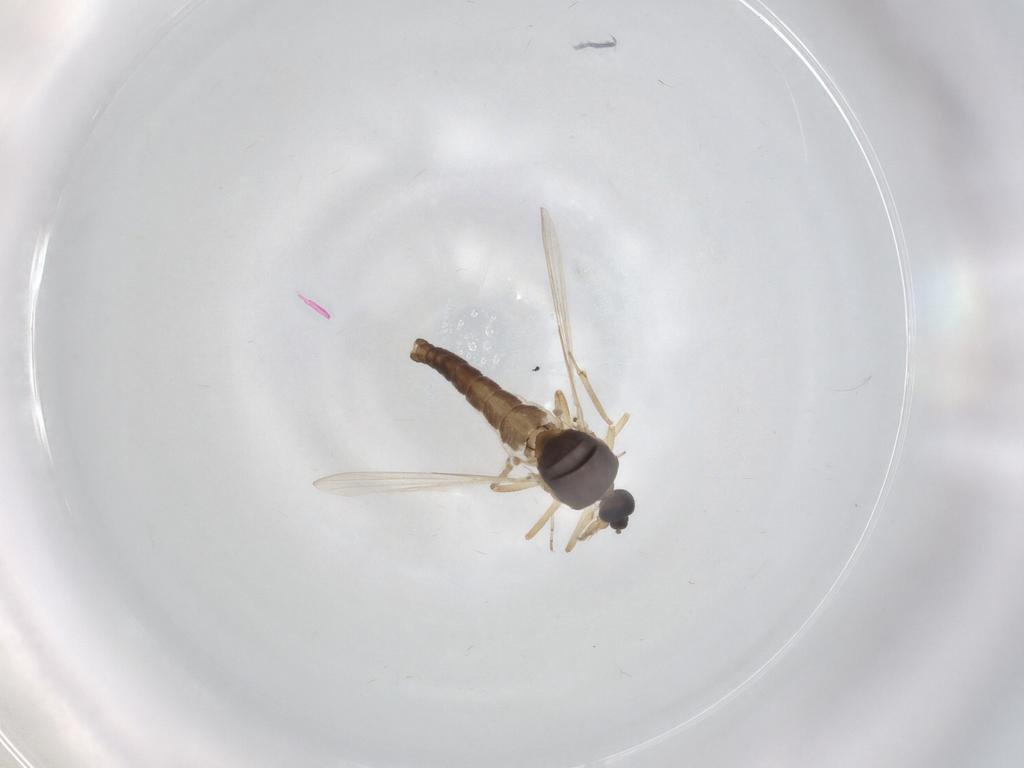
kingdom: Animalia
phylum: Arthropoda
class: Insecta
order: Diptera
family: Ceratopogonidae
